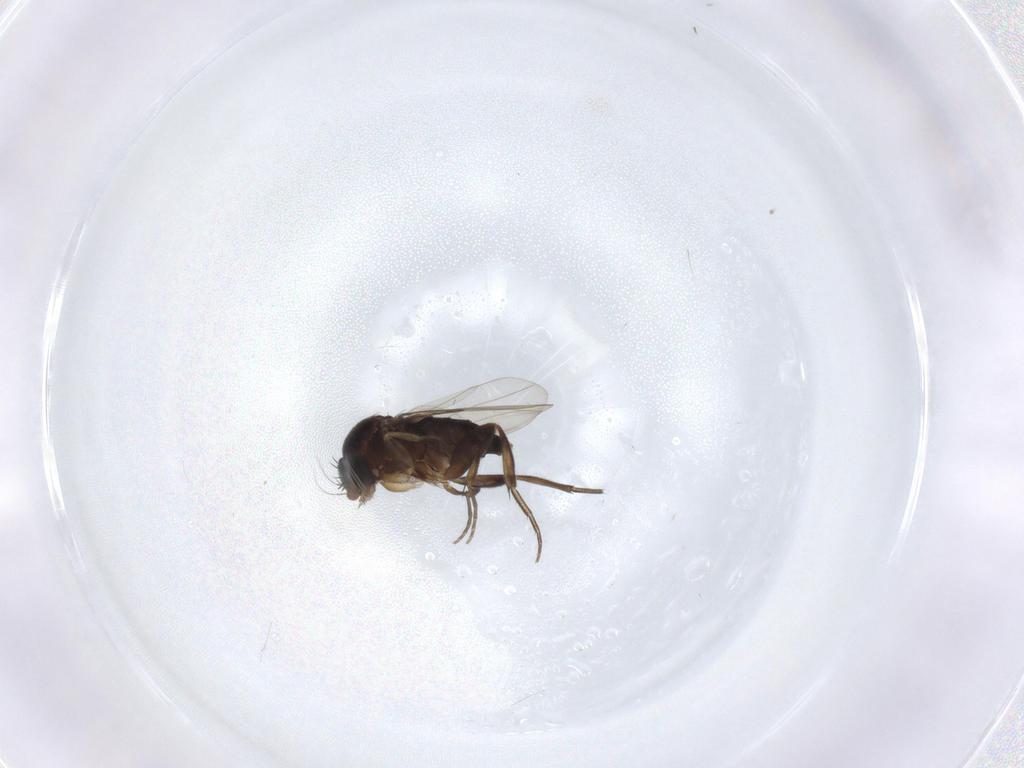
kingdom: Animalia
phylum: Arthropoda
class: Insecta
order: Diptera
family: Phoridae
